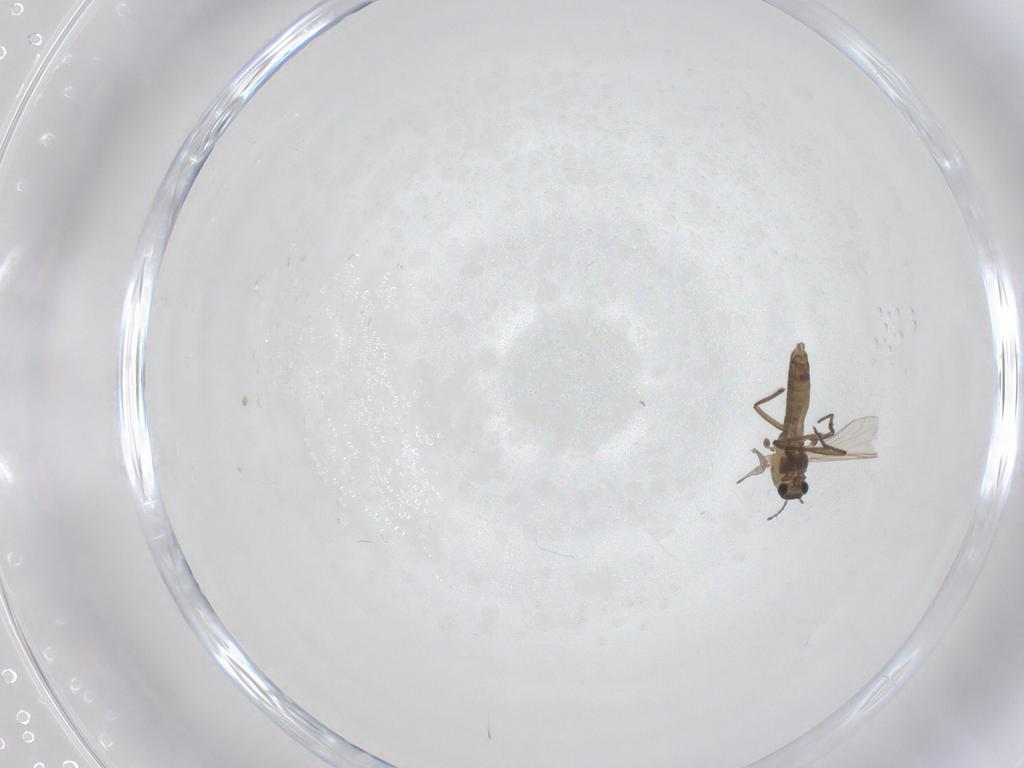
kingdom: Animalia
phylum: Arthropoda
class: Insecta
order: Diptera
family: Chironomidae
